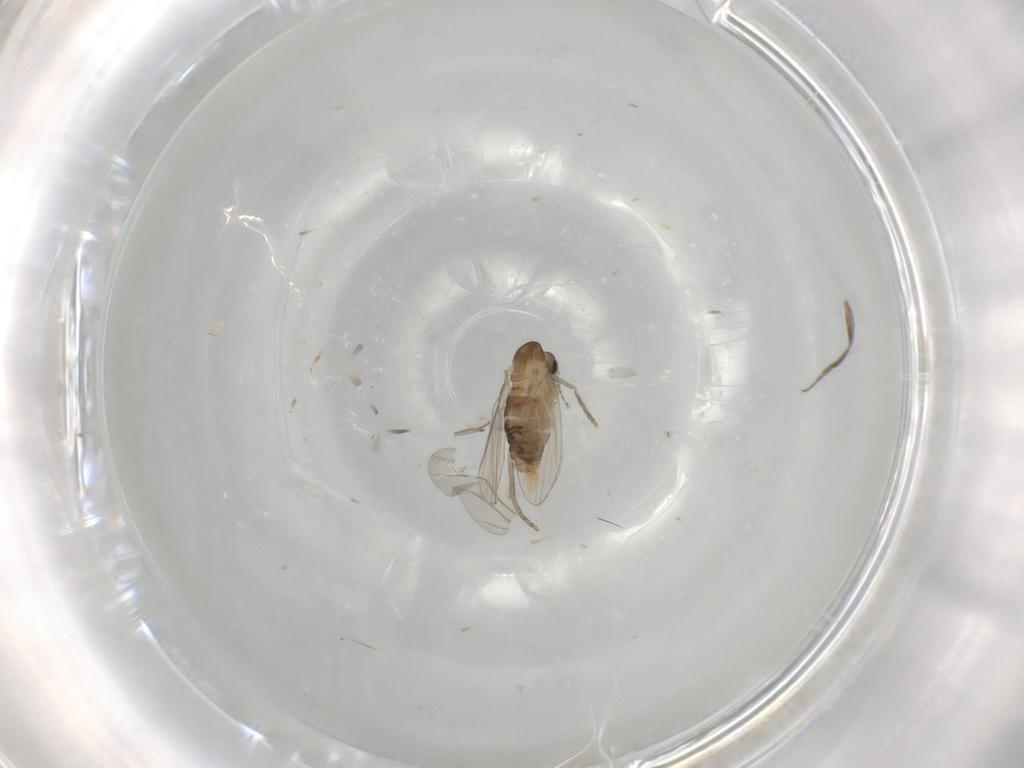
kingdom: Animalia
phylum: Arthropoda
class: Insecta
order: Diptera
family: Psychodidae
